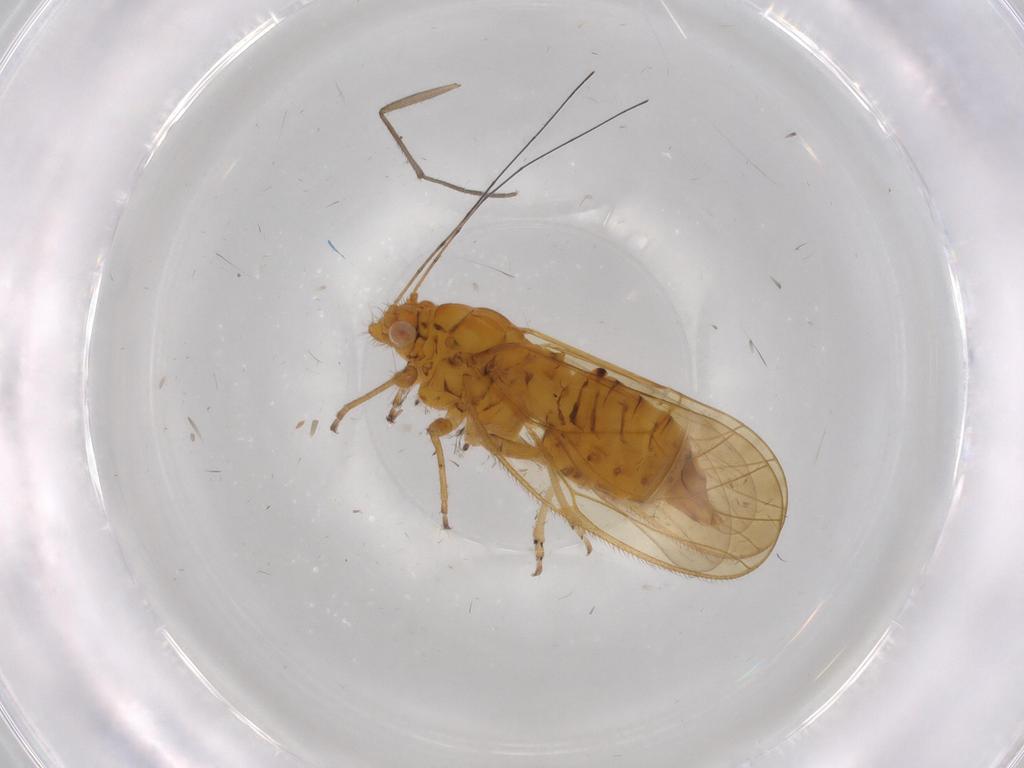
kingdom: Animalia
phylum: Arthropoda
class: Insecta
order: Hemiptera
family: Psyllidae
